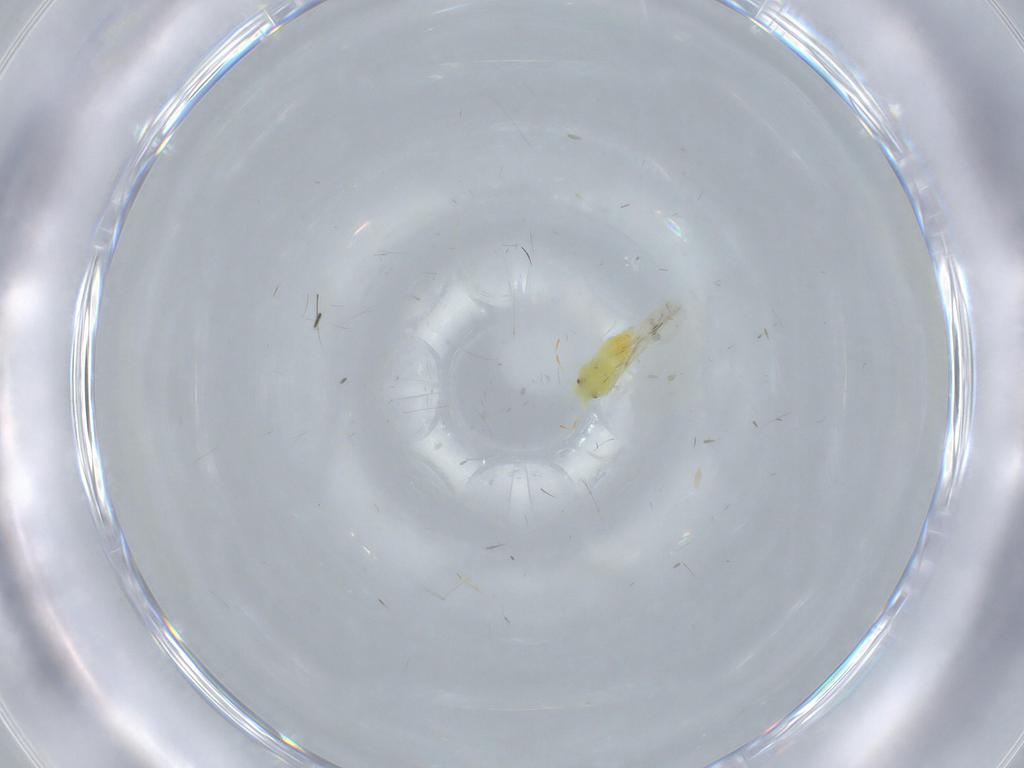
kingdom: Animalia
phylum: Arthropoda
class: Insecta
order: Hemiptera
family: Aleyrodidae
